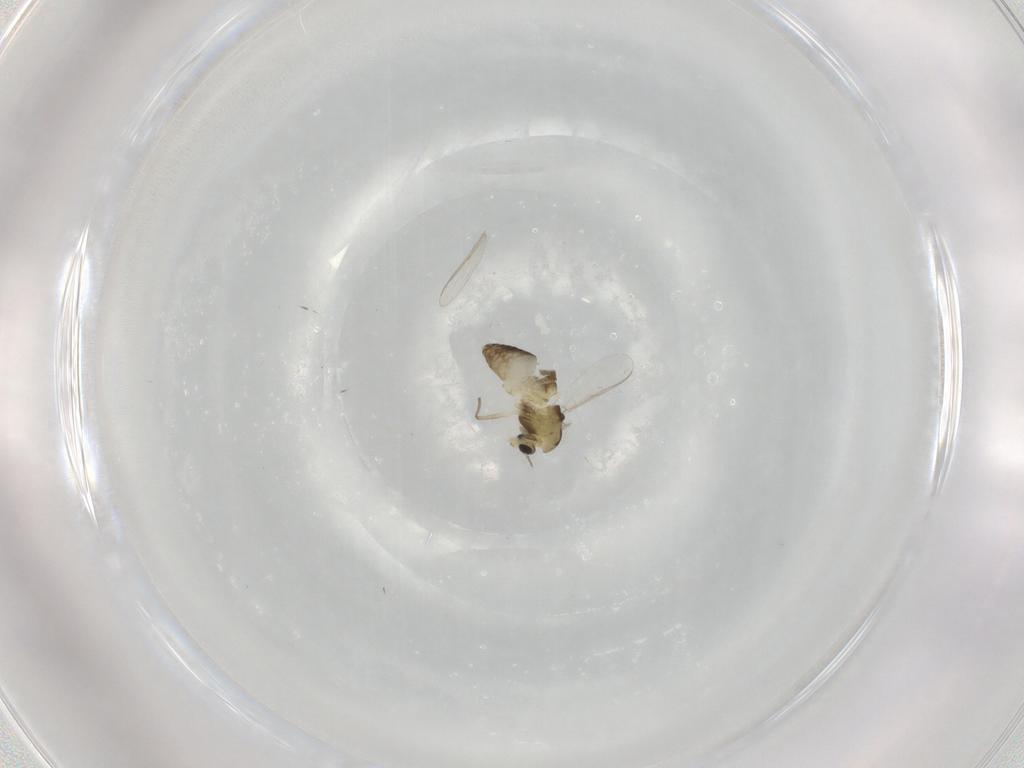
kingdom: Animalia
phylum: Arthropoda
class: Insecta
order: Diptera
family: Chironomidae
